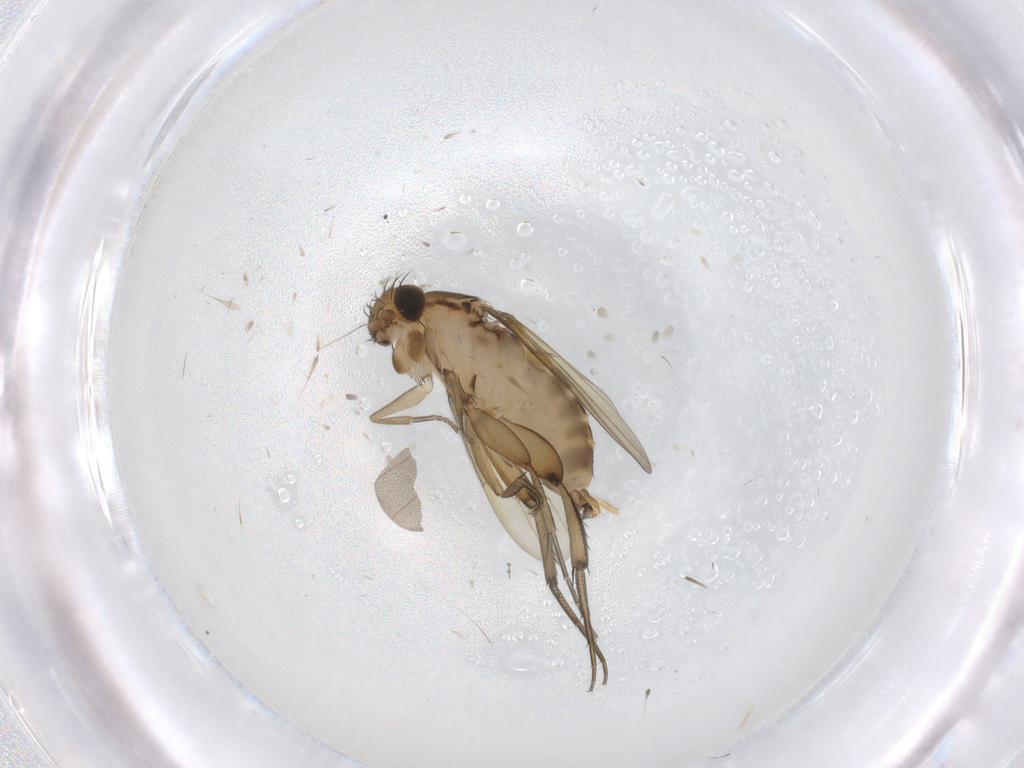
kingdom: Animalia
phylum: Arthropoda
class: Insecta
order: Diptera
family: Phoridae
